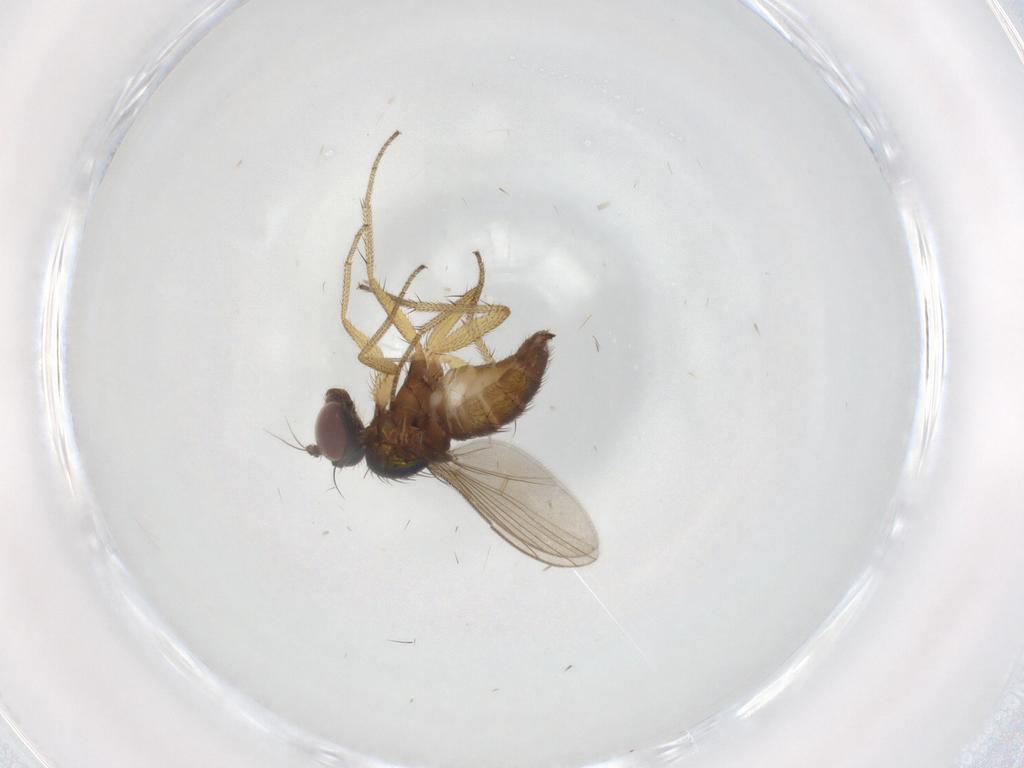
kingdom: Animalia
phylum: Arthropoda
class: Insecta
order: Diptera
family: Dolichopodidae
